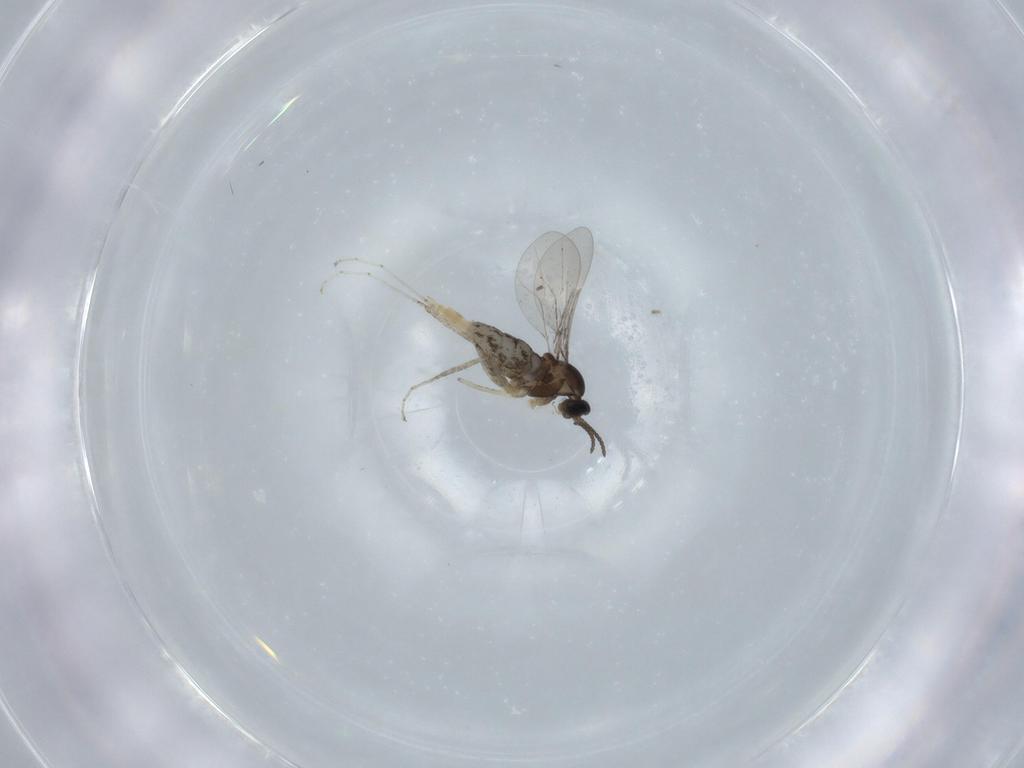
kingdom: Animalia
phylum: Arthropoda
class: Insecta
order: Diptera
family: Cecidomyiidae
